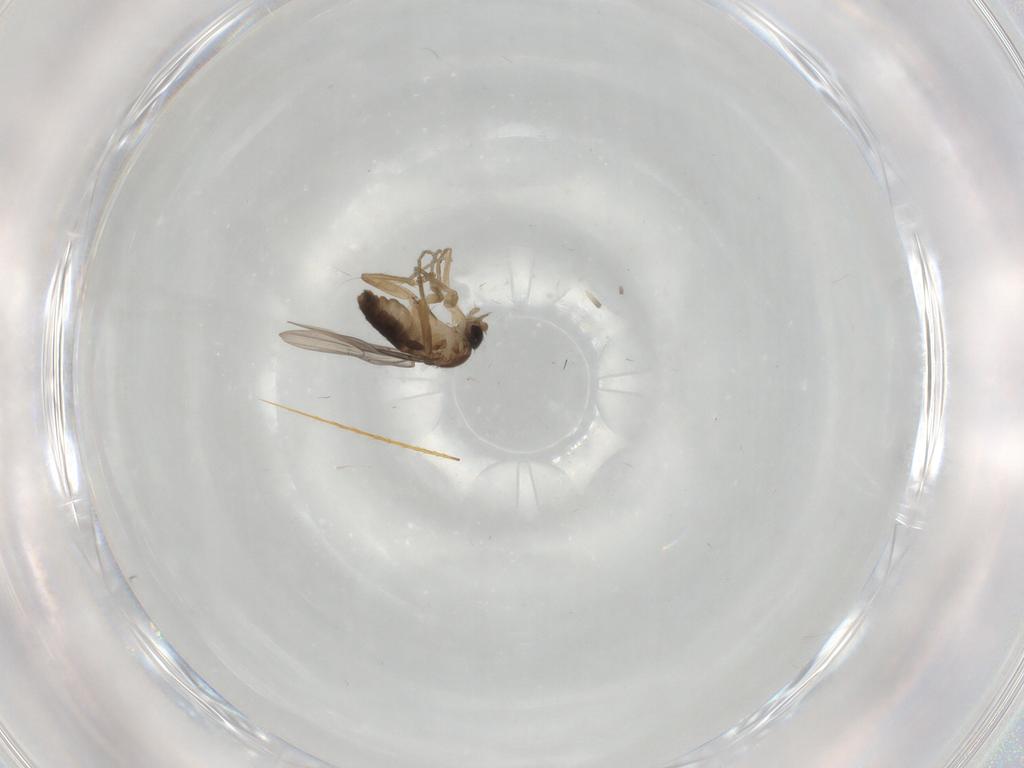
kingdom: Animalia
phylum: Arthropoda
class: Insecta
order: Diptera
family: Phoridae
